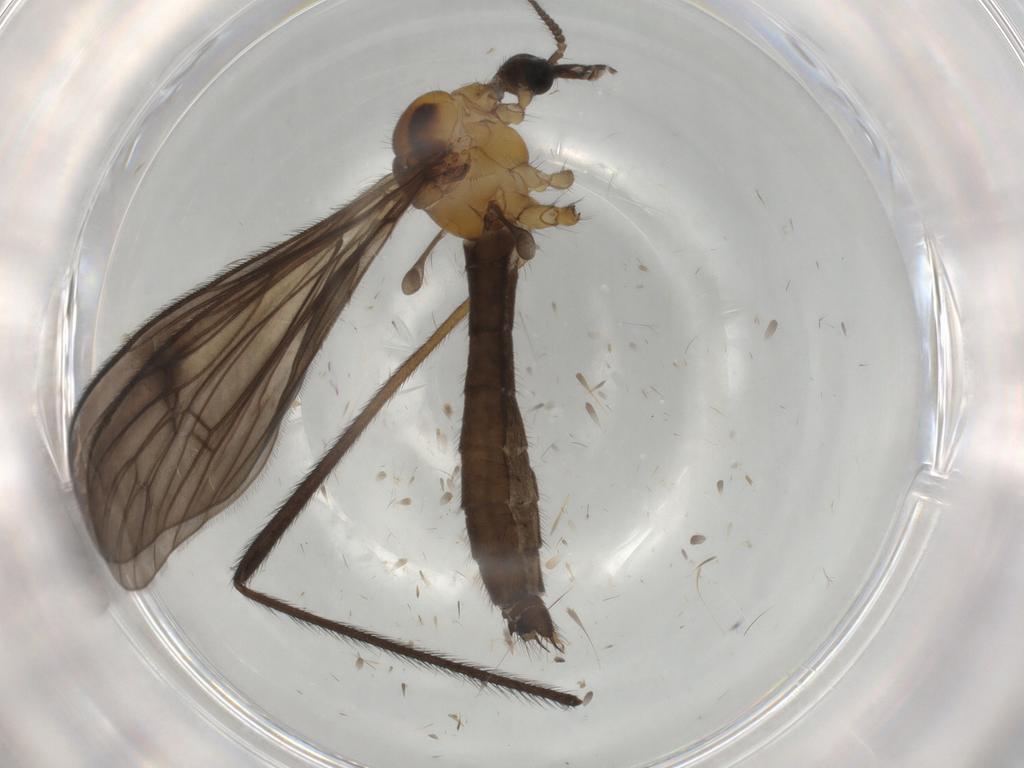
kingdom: Animalia
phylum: Arthropoda
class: Insecta
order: Diptera
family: Limoniidae
